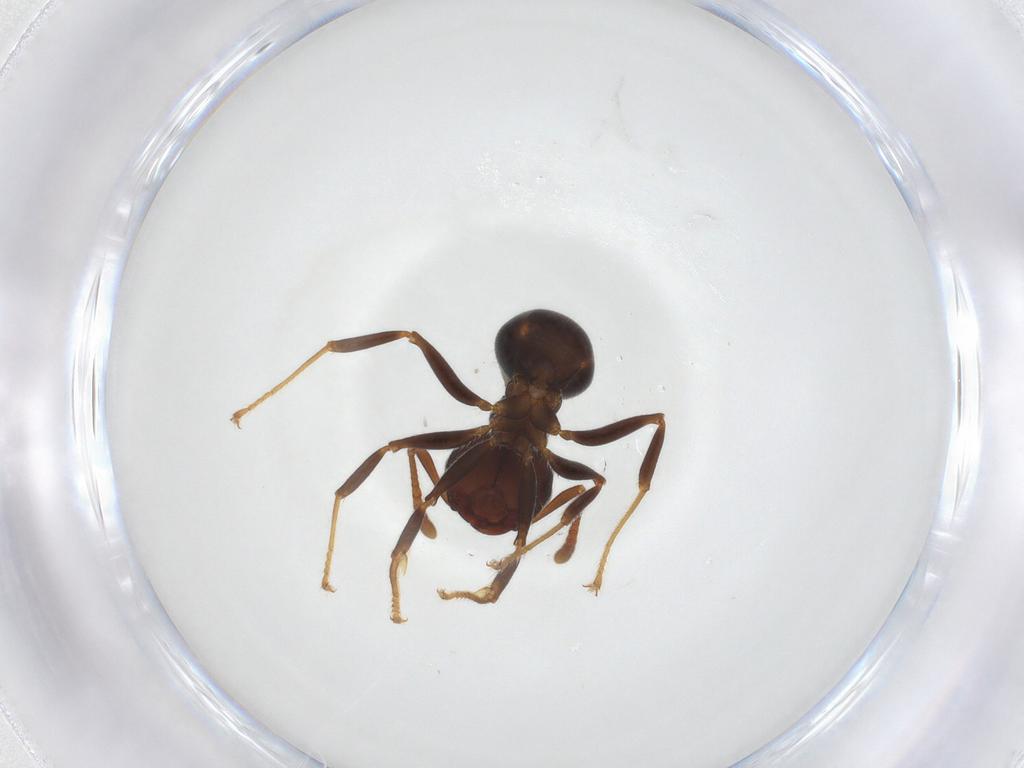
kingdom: Animalia
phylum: Arthropoda
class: Insecta
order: Hymenoptera
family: Formicidae
